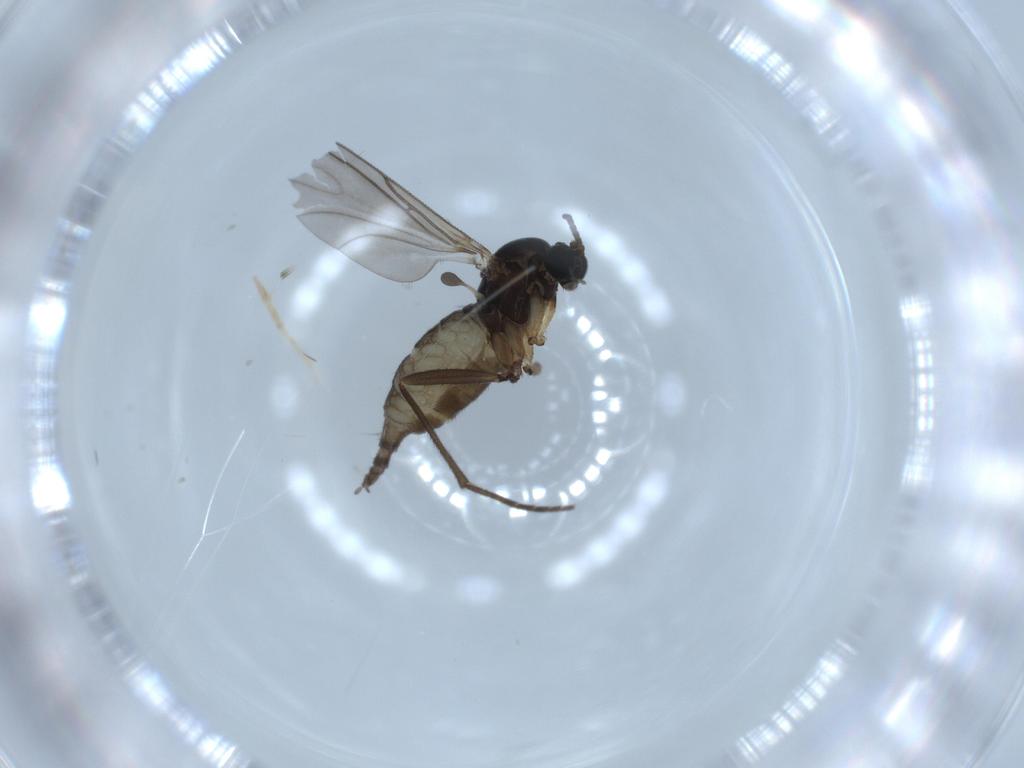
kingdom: Animalia
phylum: Arthropoda
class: Insecta
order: Diptera
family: Sciaridae
